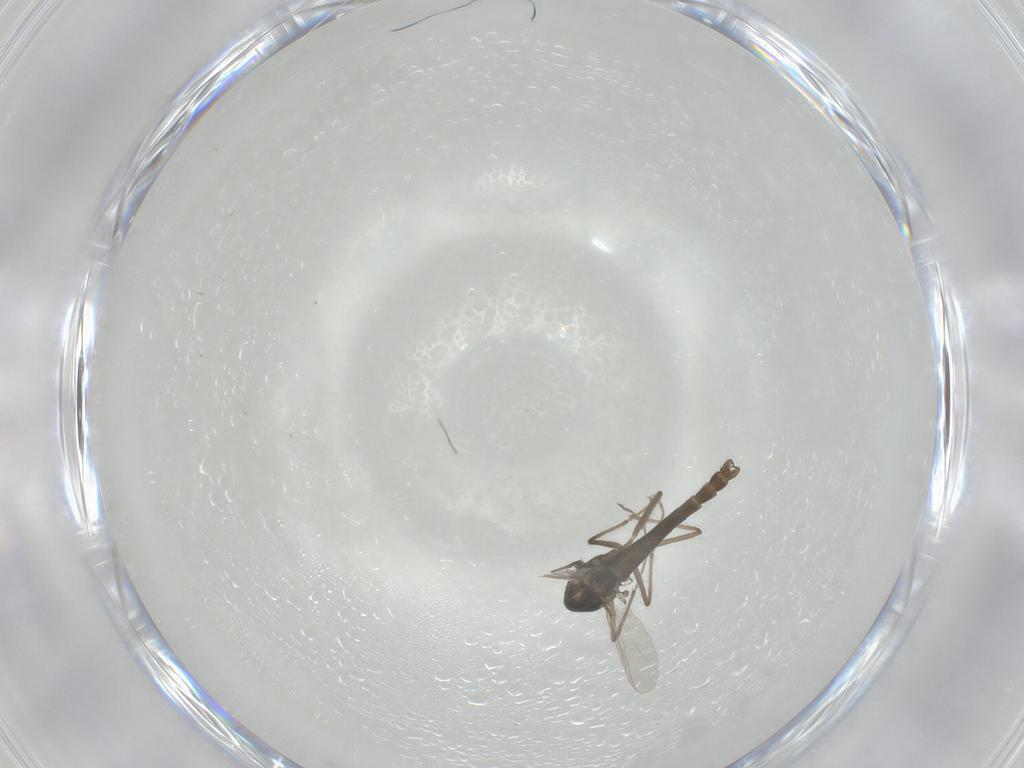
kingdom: Animalia
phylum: Arthropoda
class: Insecta
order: Diptera
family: Chironomidae
